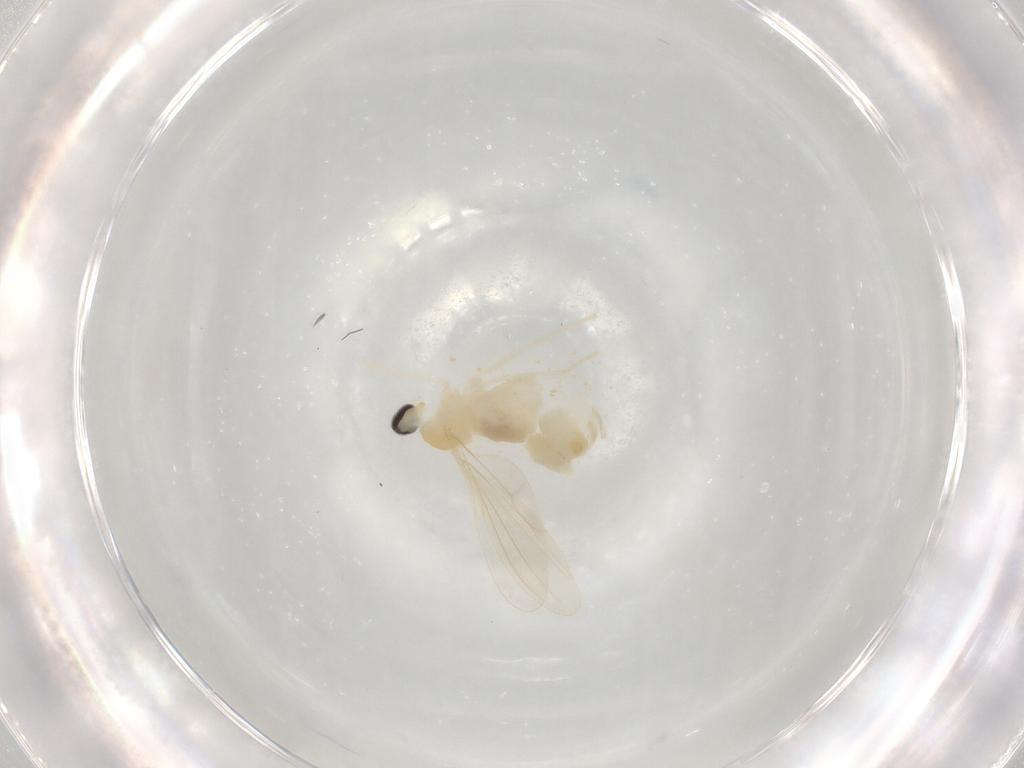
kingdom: Animalia
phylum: Arthropoda
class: Insecta
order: Diptera
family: Cecidomyiidae
